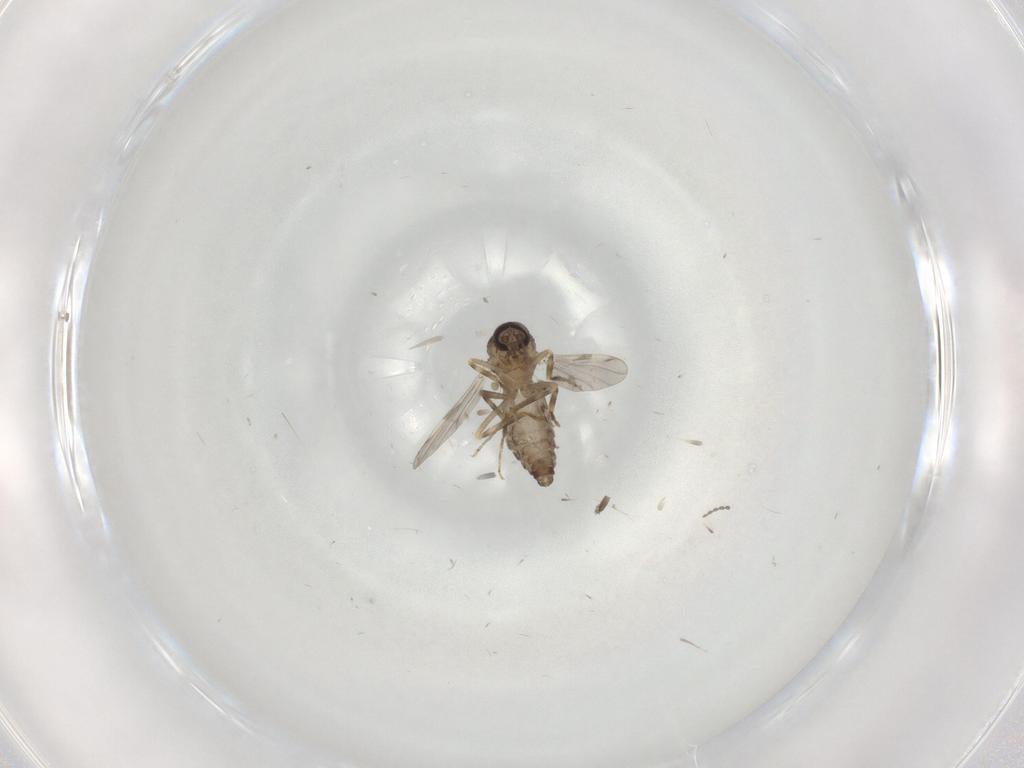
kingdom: Animalia
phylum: Arthropoda
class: Insecta
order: Diptera
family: Ceratopogonidae
